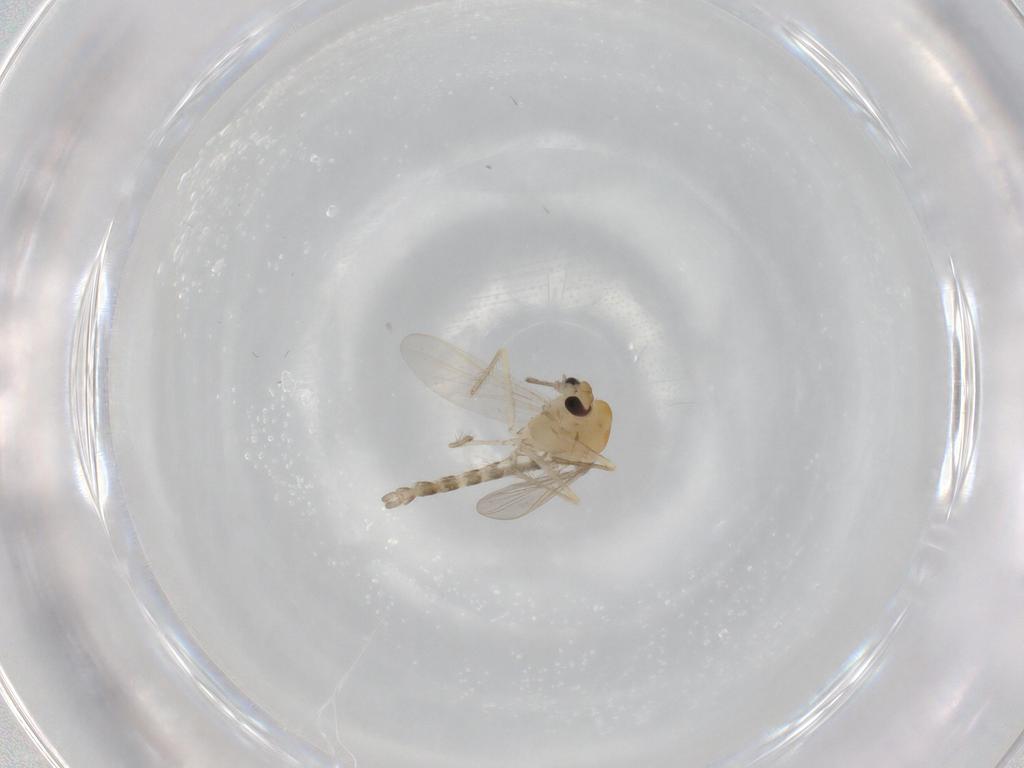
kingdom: Animalia
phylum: Arthropoda
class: Insecta
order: Diptera
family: Chironomidae
